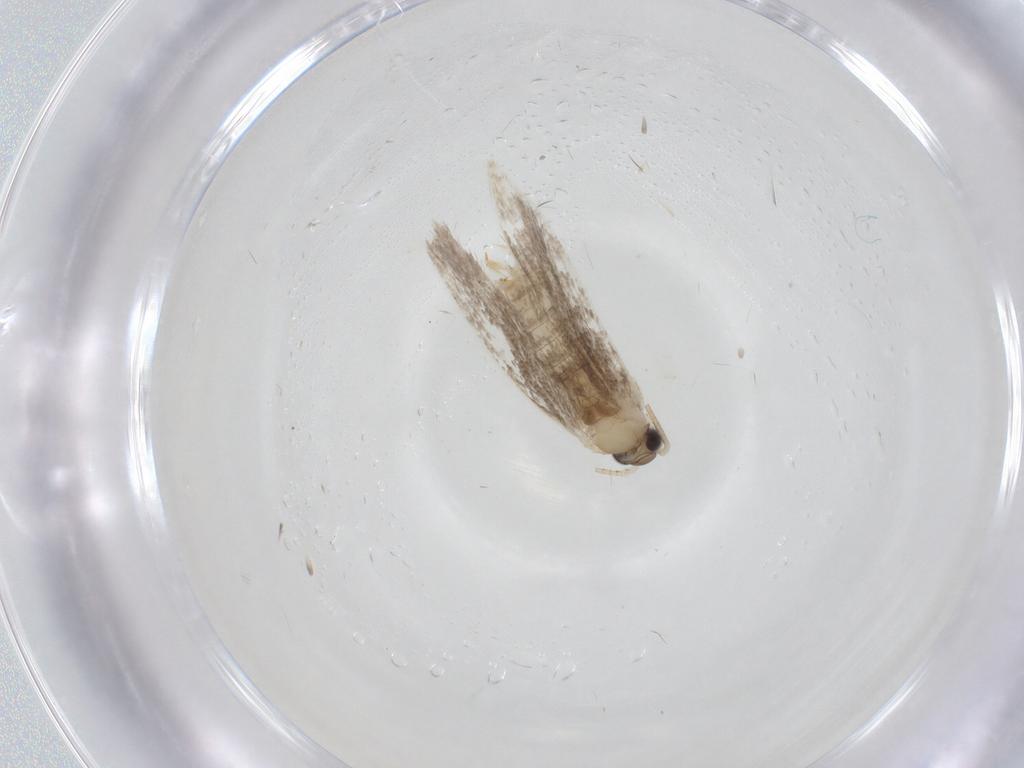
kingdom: Animalia
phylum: Arthropoda
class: Insecta
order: Lepidoptera
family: Dryadaulidae
